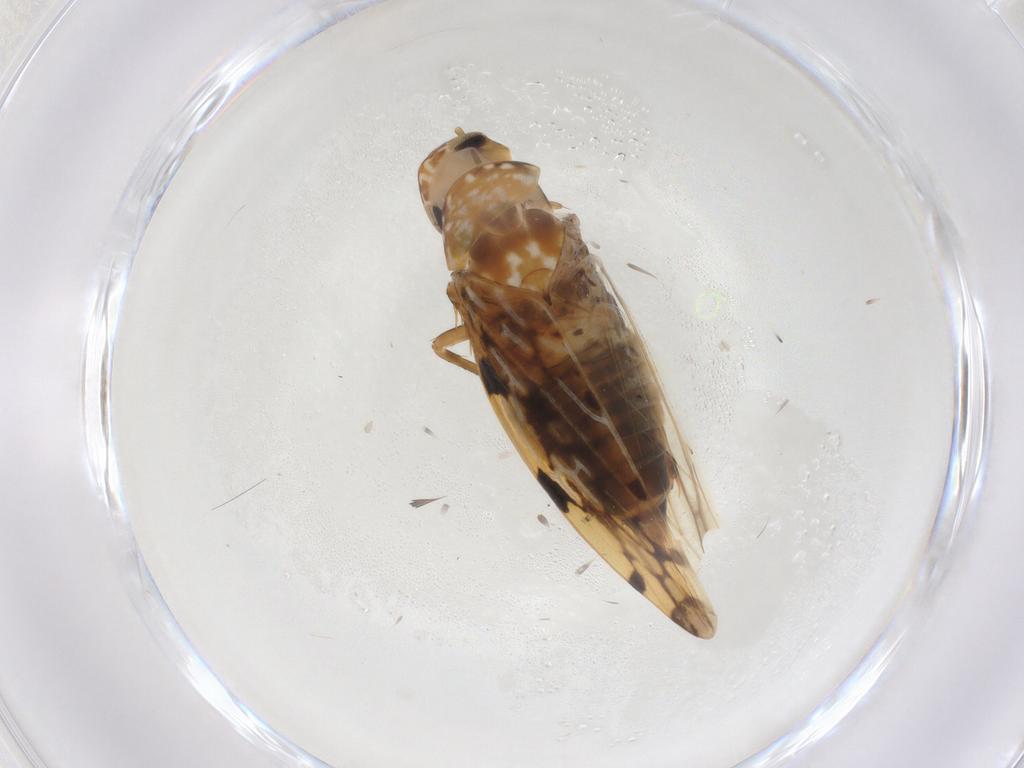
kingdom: Animalia
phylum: Arthropoda
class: Insecta
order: Hemiptera
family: Cicadellidae
